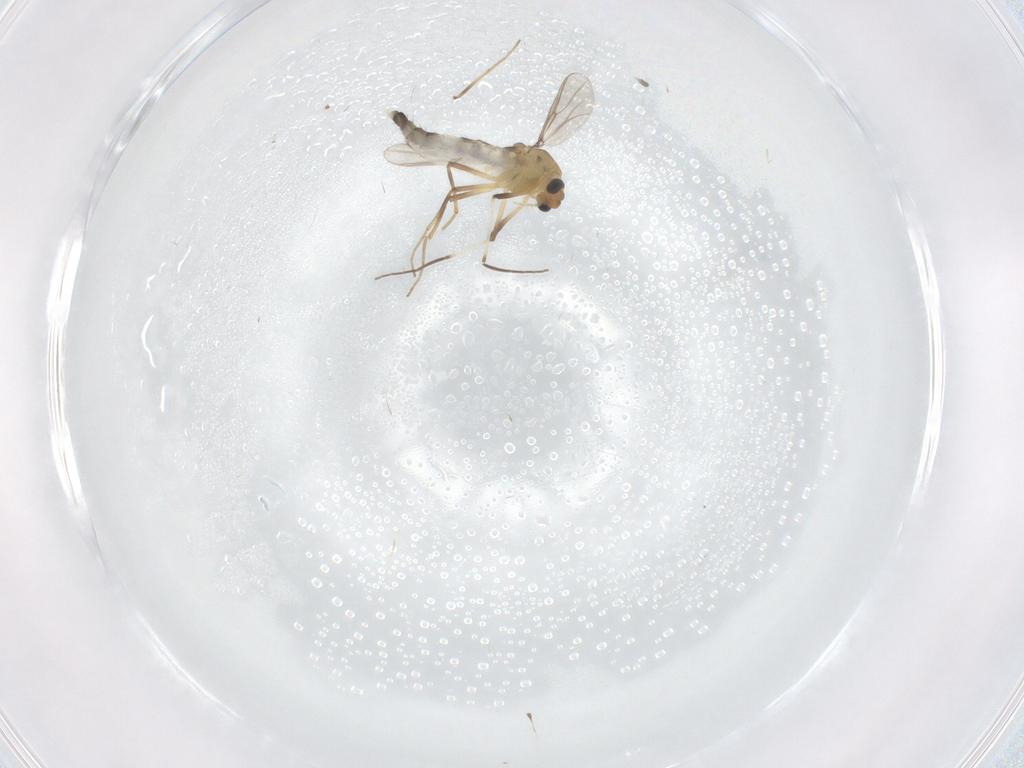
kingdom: Animalia
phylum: Arthropoda
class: Insecta
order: Diptera
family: Chironomidae
